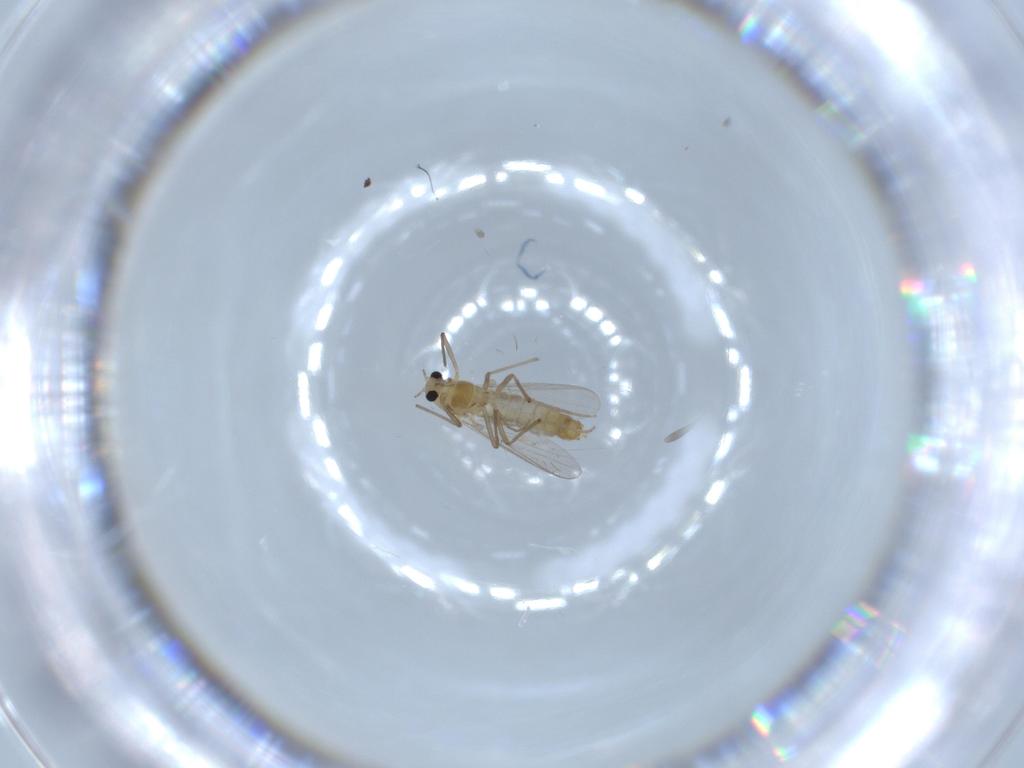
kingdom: Animalia
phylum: Arthropoda
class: Insecta
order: Diptera
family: Chironomidae
